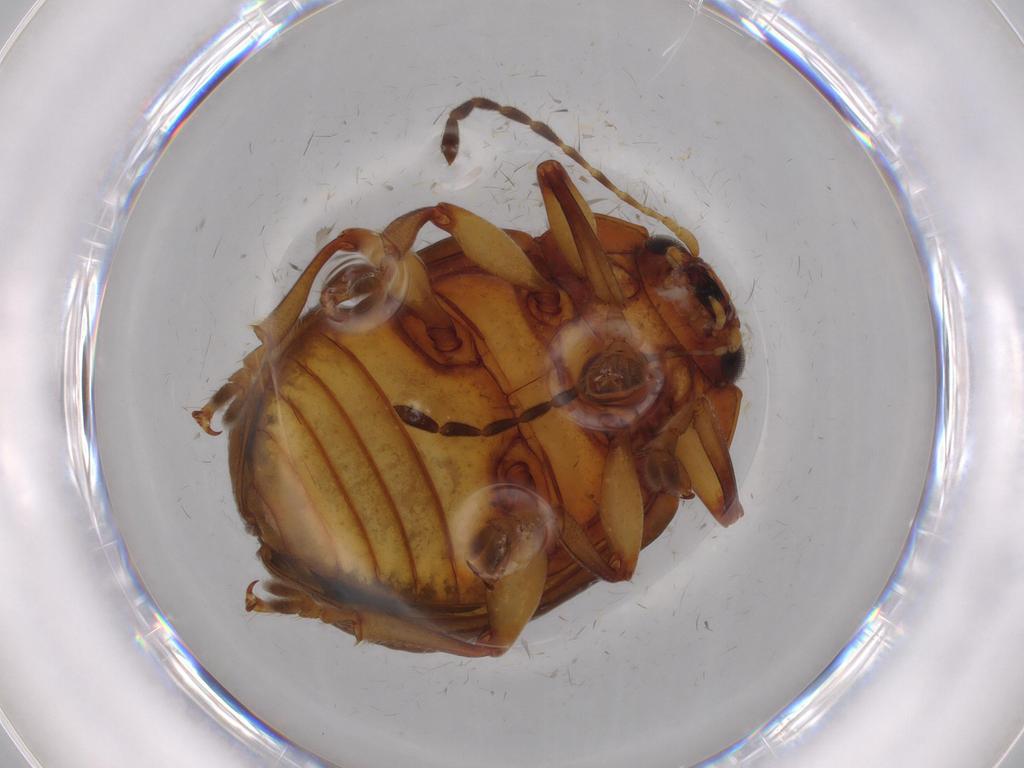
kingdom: Animalia
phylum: Arthropoda
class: Insecta
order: Coleoptera
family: Chrysomelidae
